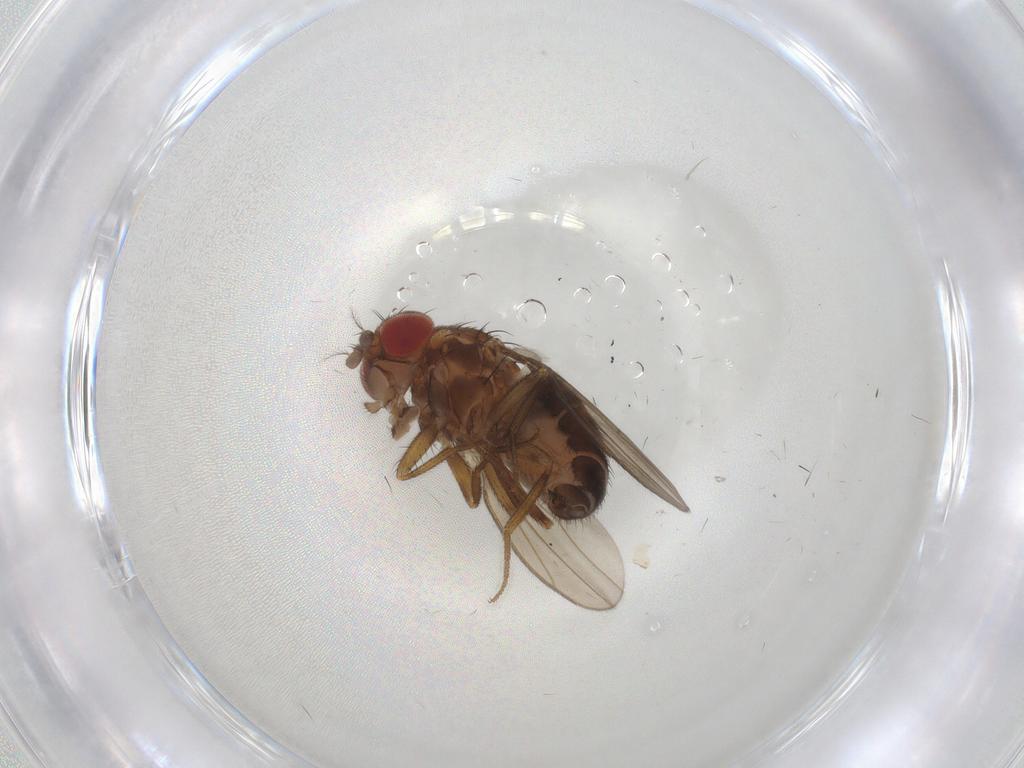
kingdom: Animalia
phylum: Arthropoda
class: Insecta
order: Diptera
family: Drosophilidae
